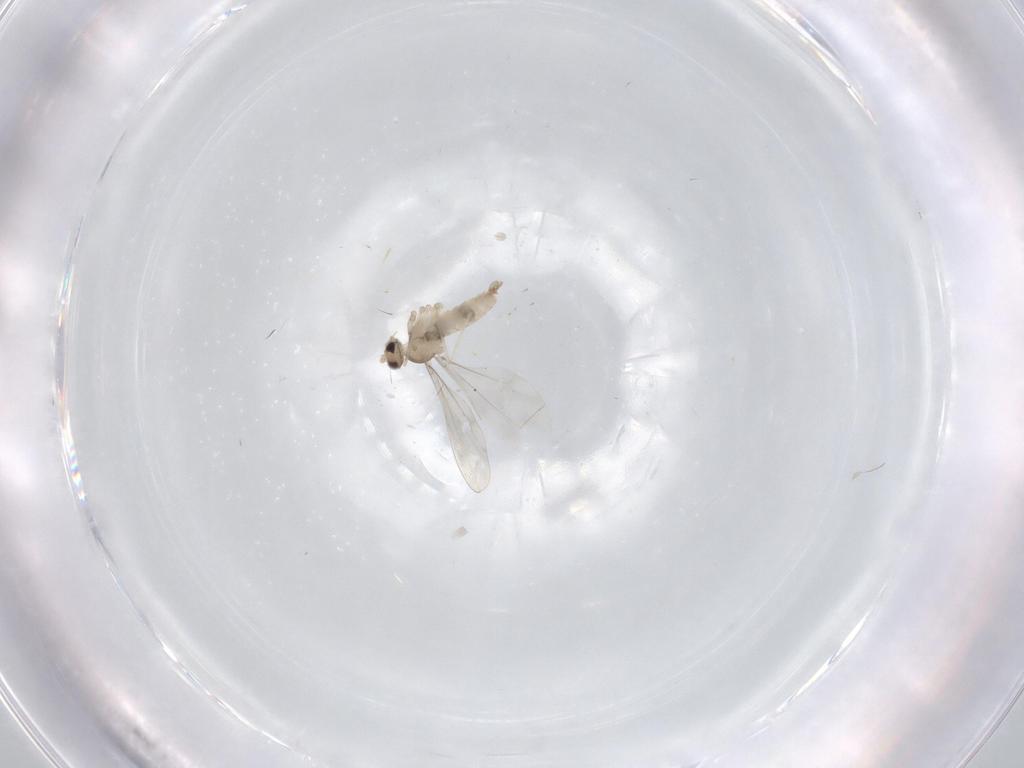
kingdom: Animalia
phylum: Arthropoda
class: Insecta
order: Diptera
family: Cecidomyiidae
